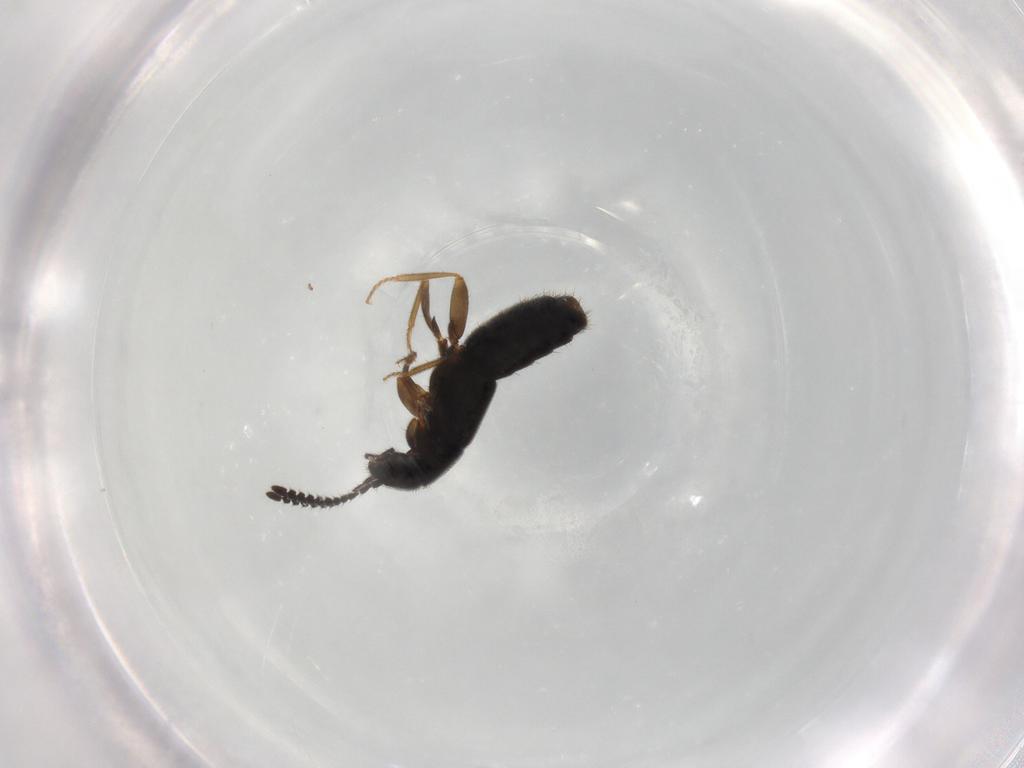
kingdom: Animalia
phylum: Arthropoda
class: Insecta
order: Coleoptera
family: Staphylinidae
